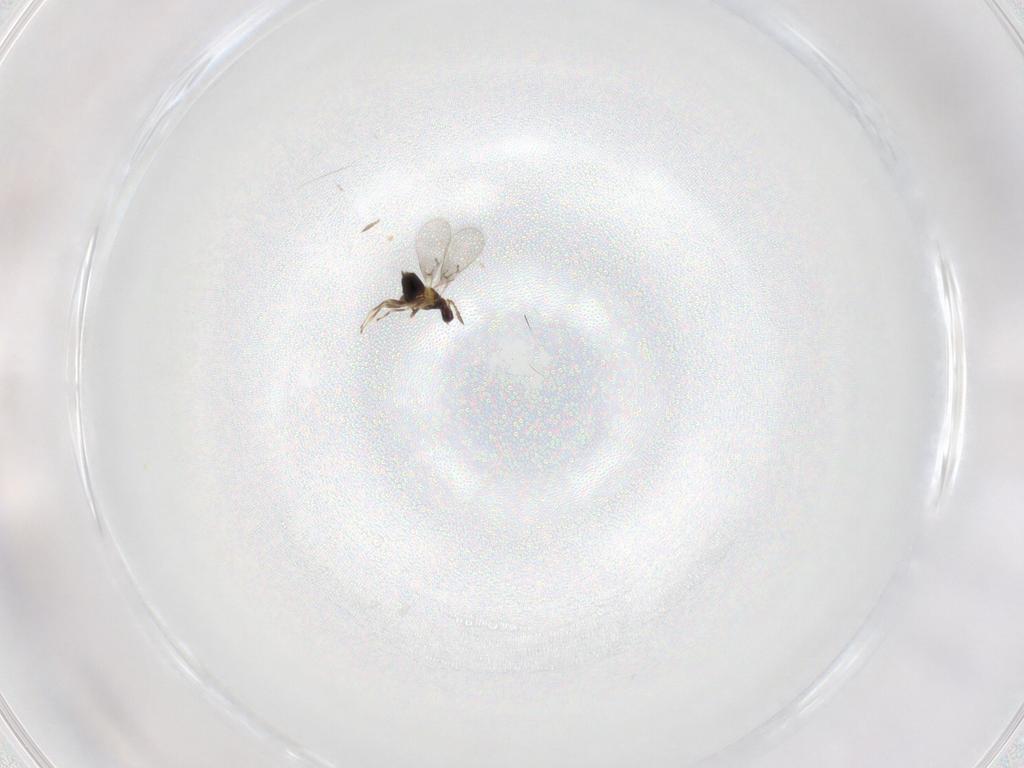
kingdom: Animalia
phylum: Arthropoda
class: Insecta
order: Hymenoptera
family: Trichogrammatidae
